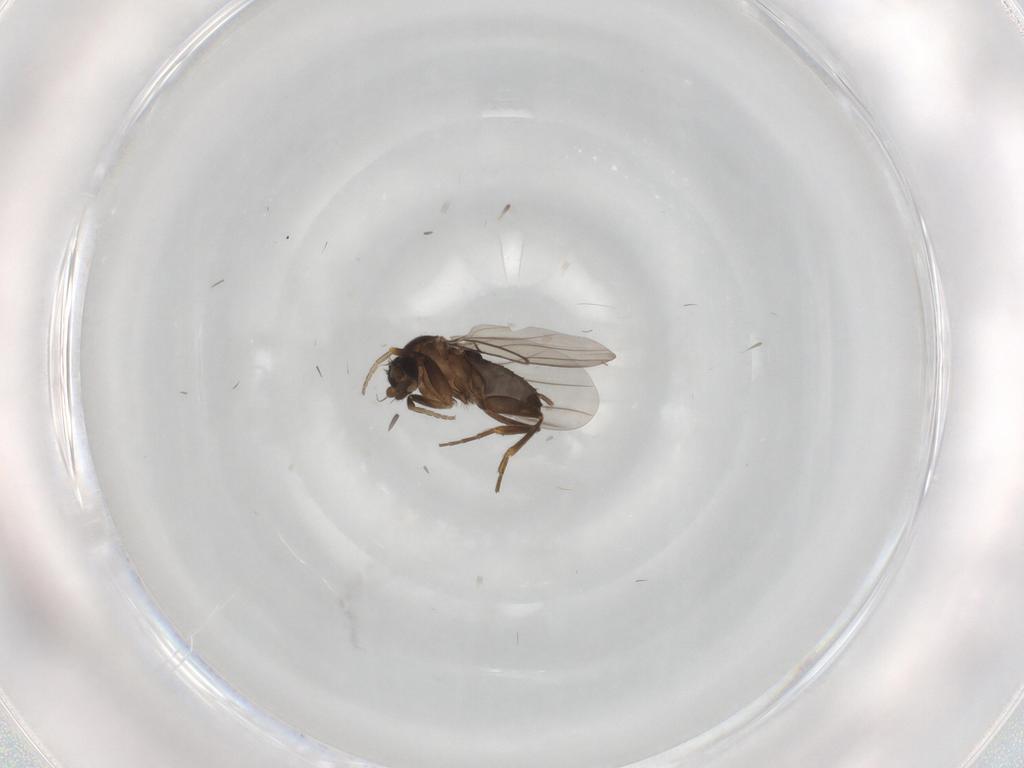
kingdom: Animalia
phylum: Arthropoda
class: Insecta
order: Diptera
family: Phoridae
